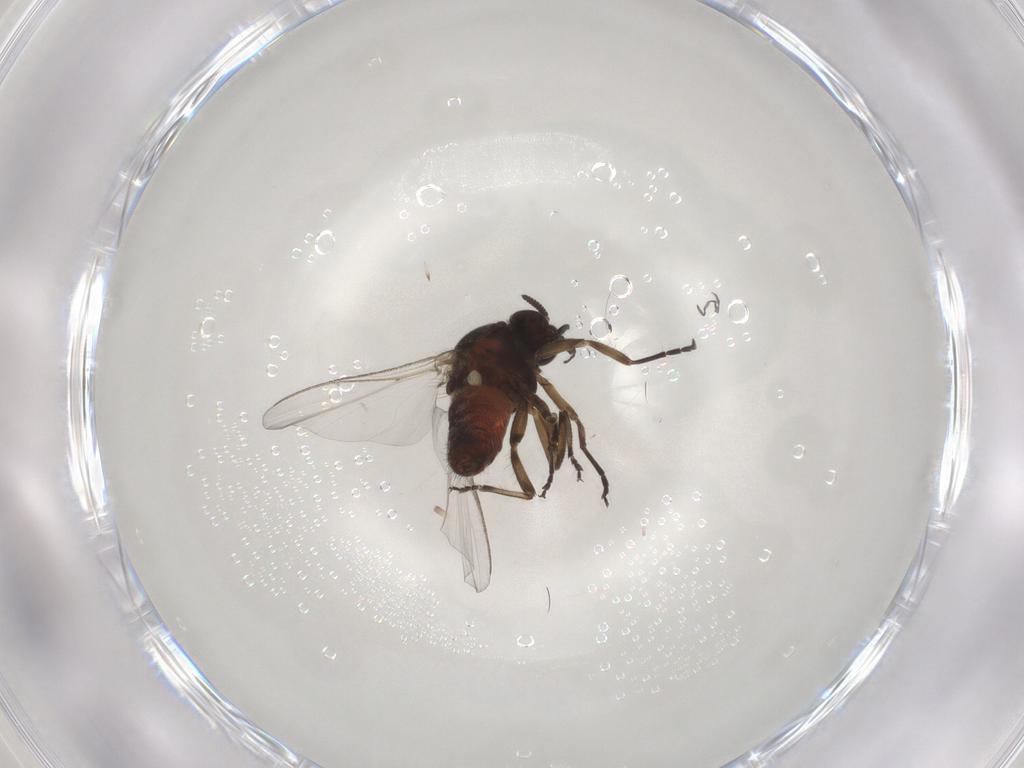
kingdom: Animalia
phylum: Arthropoda
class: Insecta
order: Diptera
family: Simuliidae
